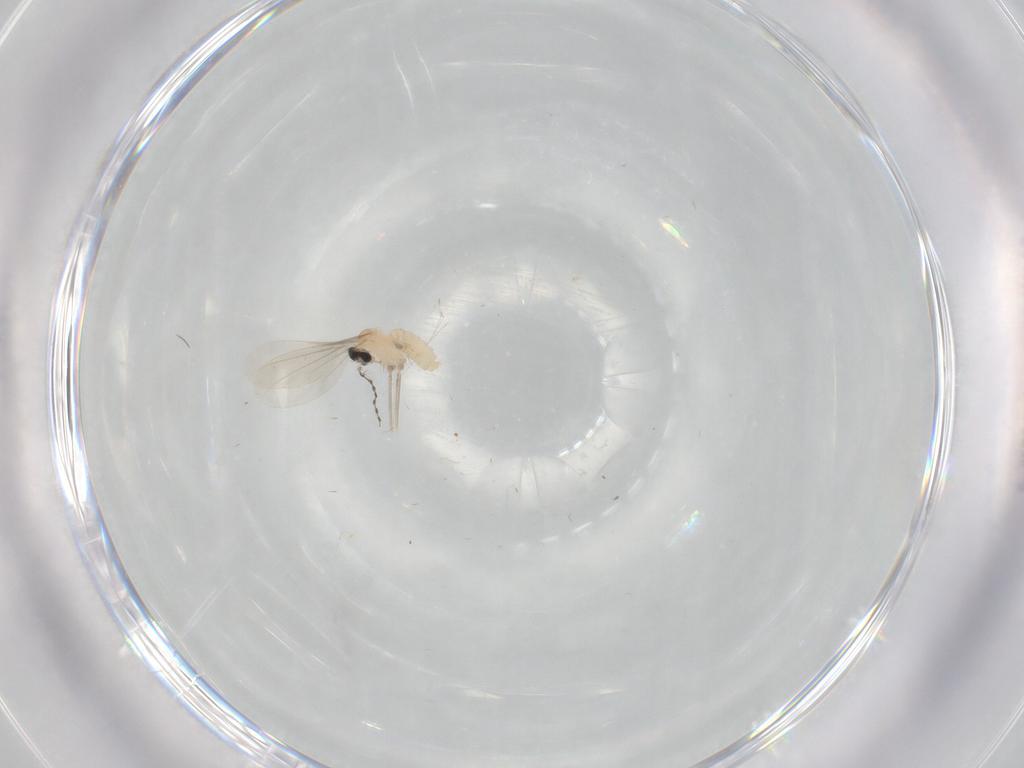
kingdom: Animalia
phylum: Arthropoda
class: Insecta
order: Diptera
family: Cecidomyiidae
